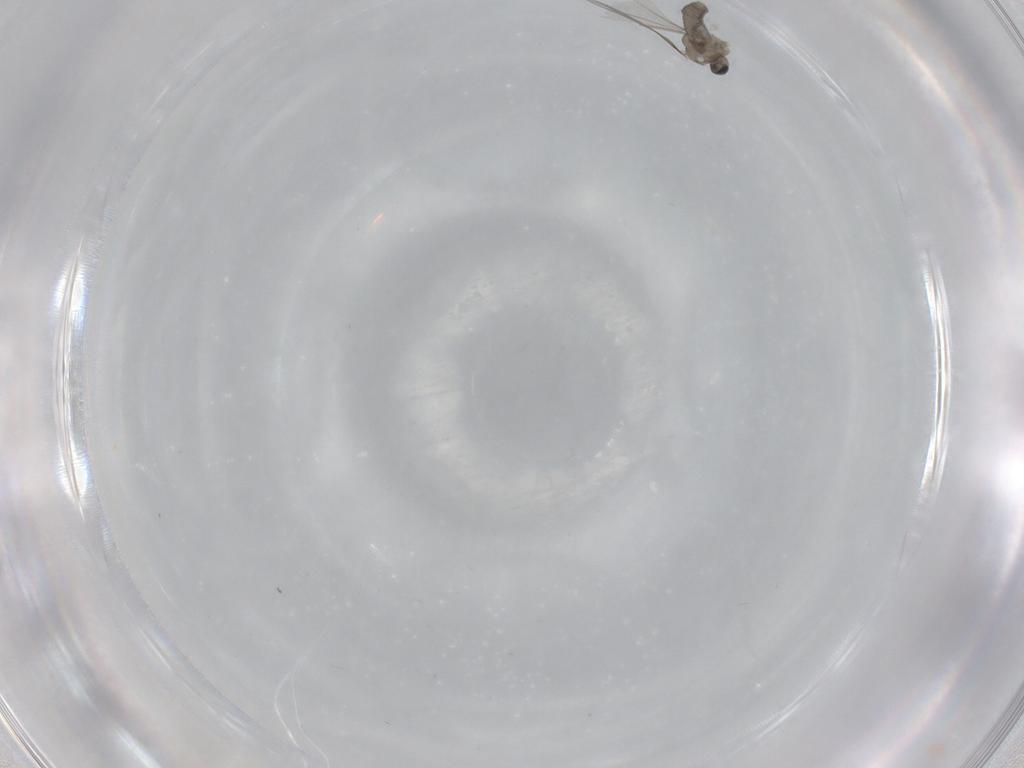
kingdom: Animalia
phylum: Arthropoda
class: Insecta
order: Diptera
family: Cecidomyiidae
